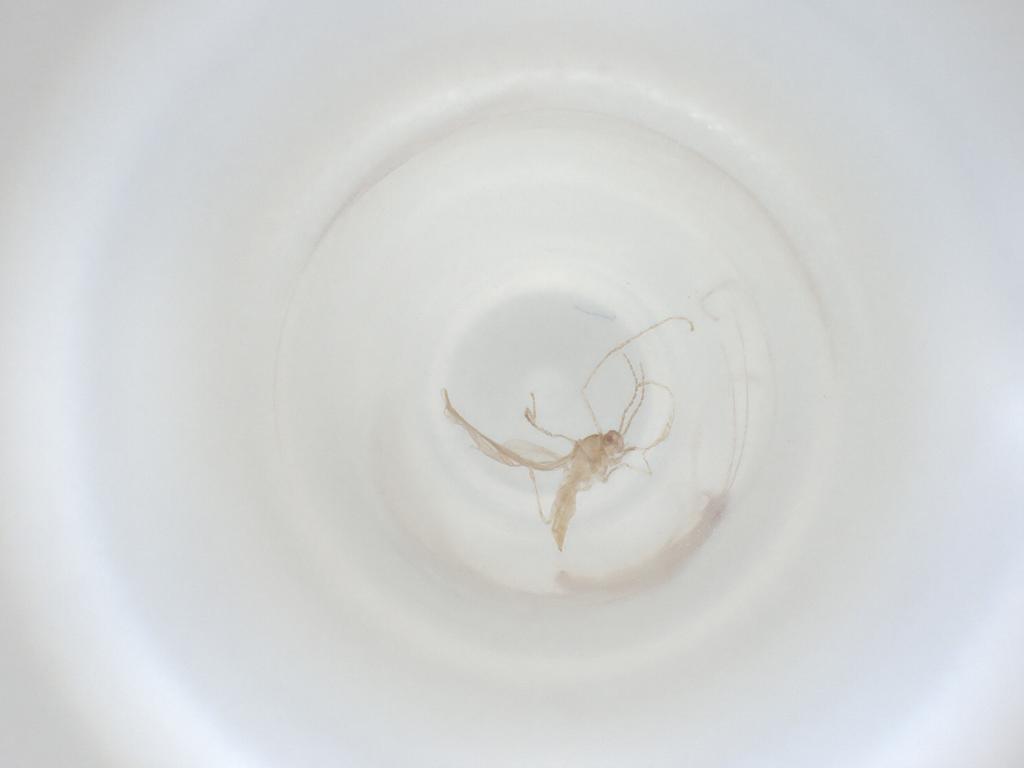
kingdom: Animalia
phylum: Arthropoda
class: Insecta
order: Diptera
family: Cecidomyiidae
